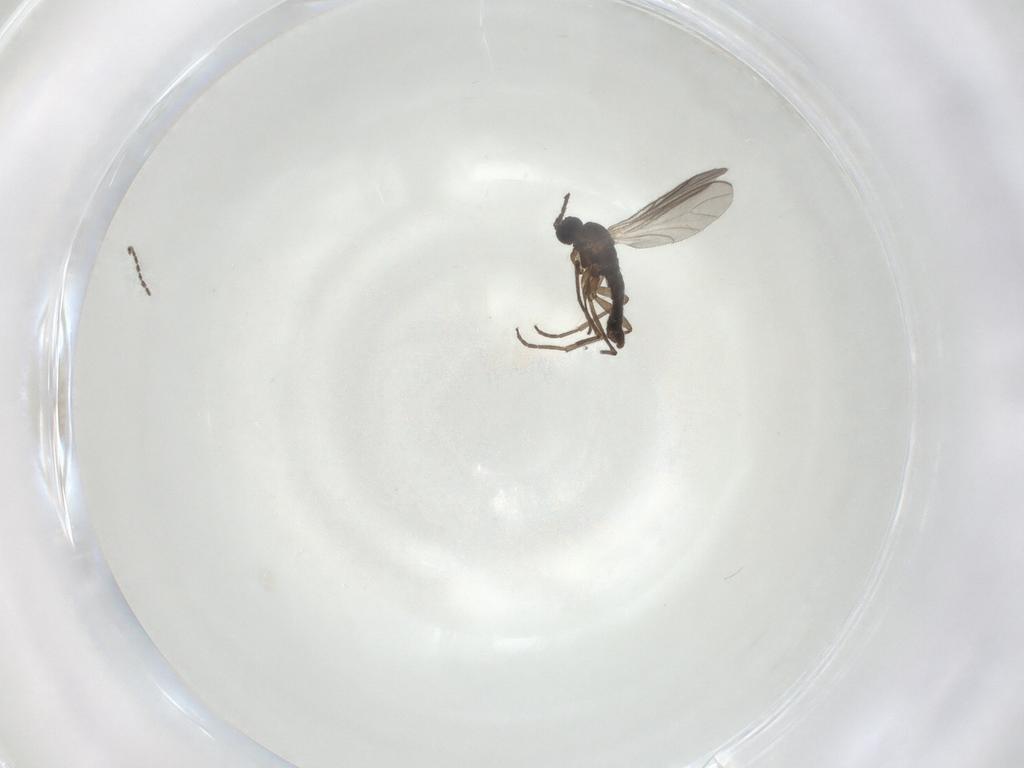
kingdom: Animalia
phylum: Arthropoda
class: Insecta
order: Diptera
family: Sciaridae
